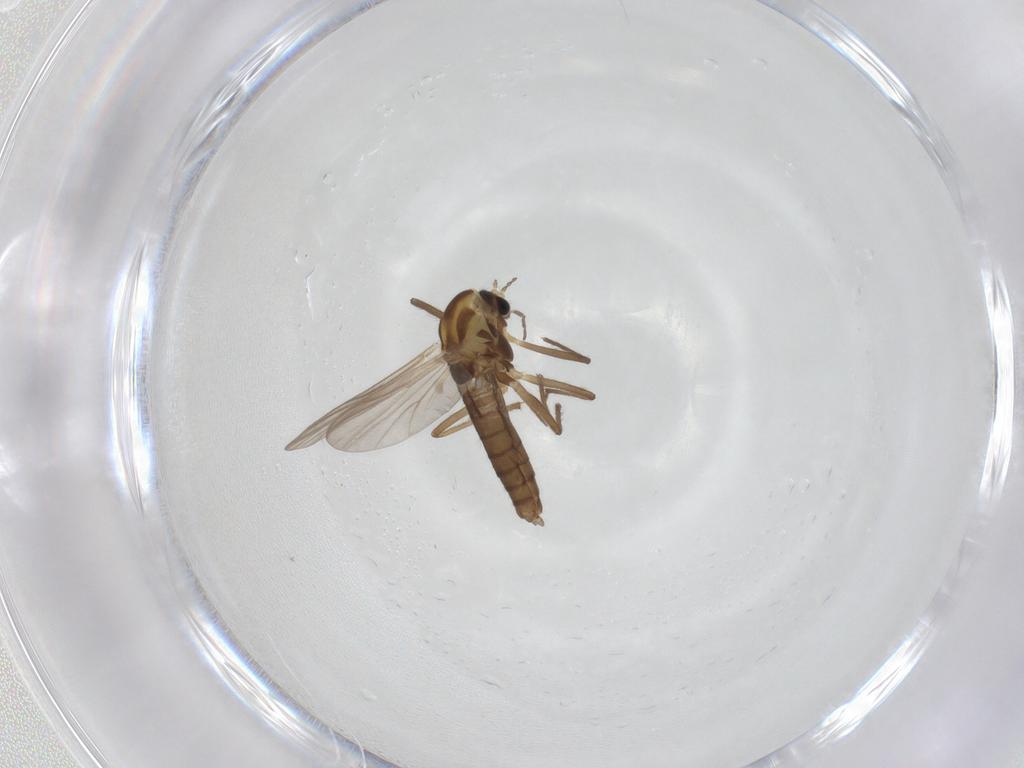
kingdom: Animalia
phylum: Arthropoda
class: Insecta
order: Diptera
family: Chironomidae
